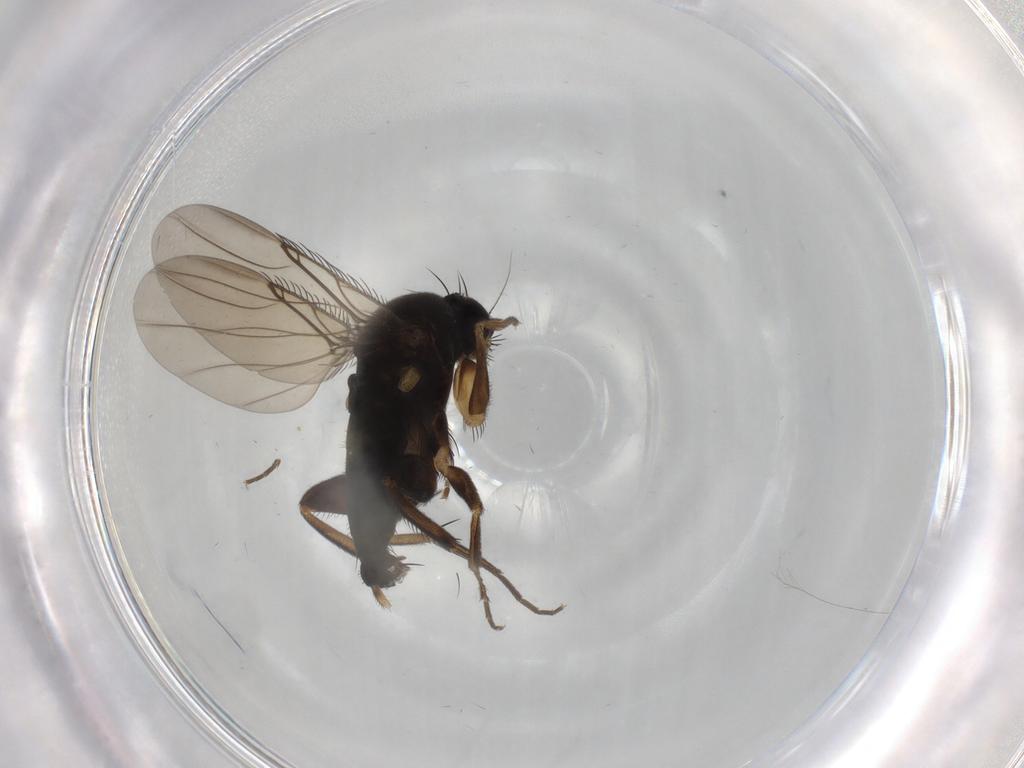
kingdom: Animalia
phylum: Arthropoda
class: Insecta
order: Diptera
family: Phoridae
